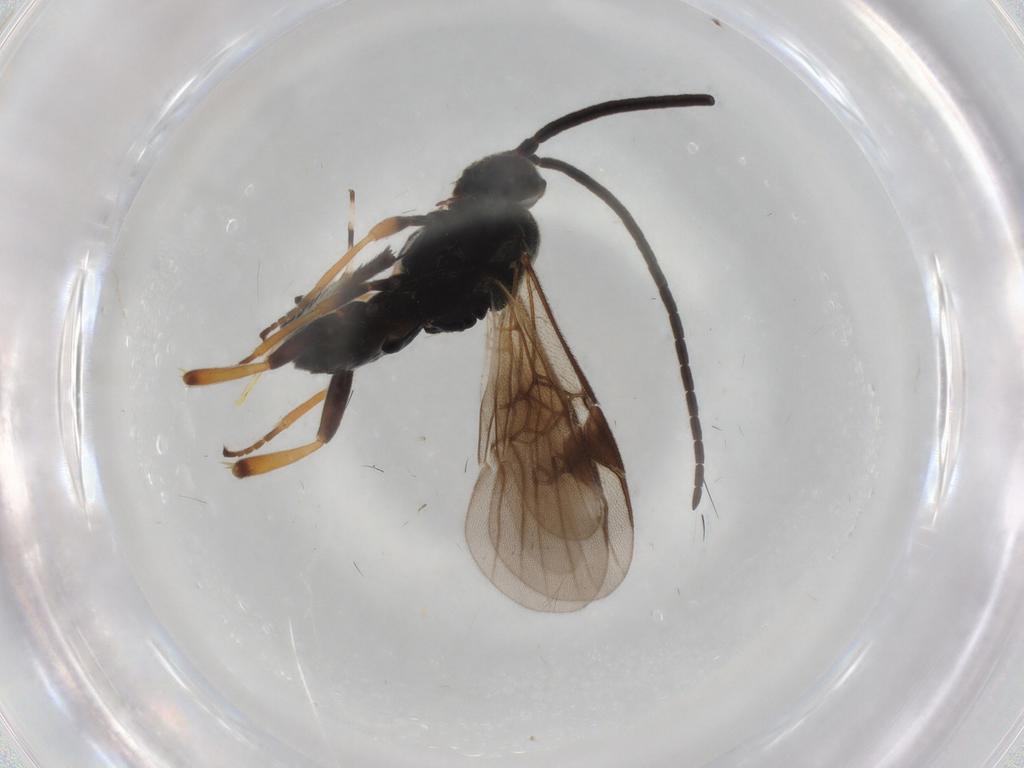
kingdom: Animalia
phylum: Arthropoda
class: Insecta
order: Hymenoptera
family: Braconidae
